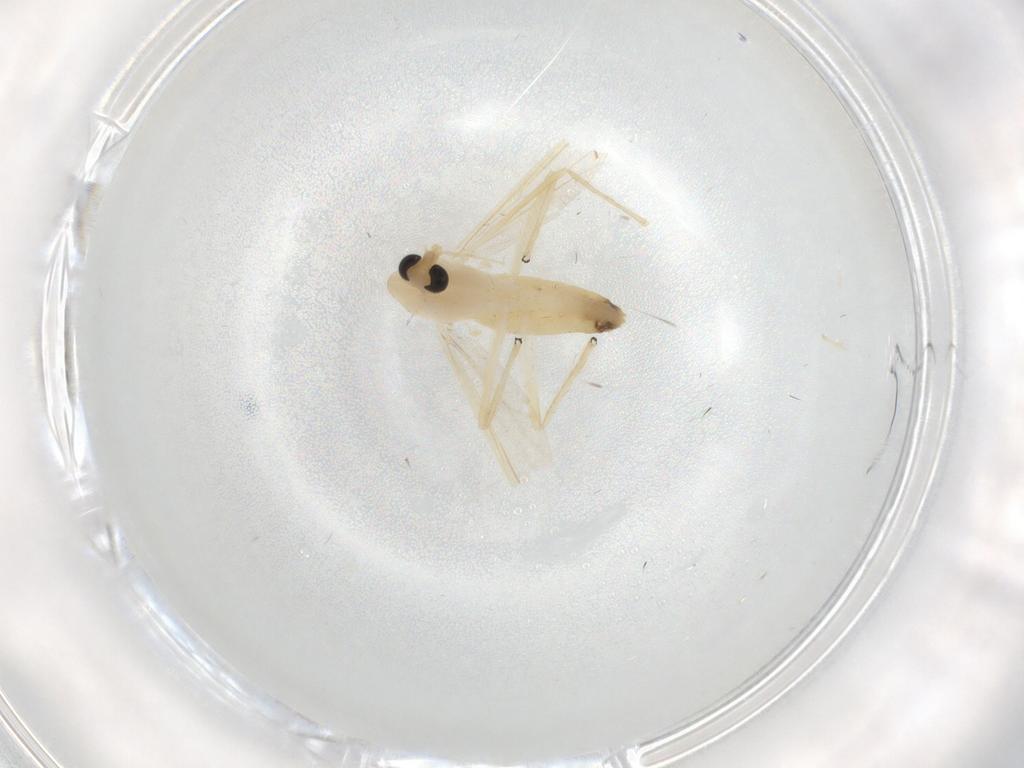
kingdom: Animalia
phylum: Arthropoda
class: Insecta
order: Diptera
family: Chironomidae
